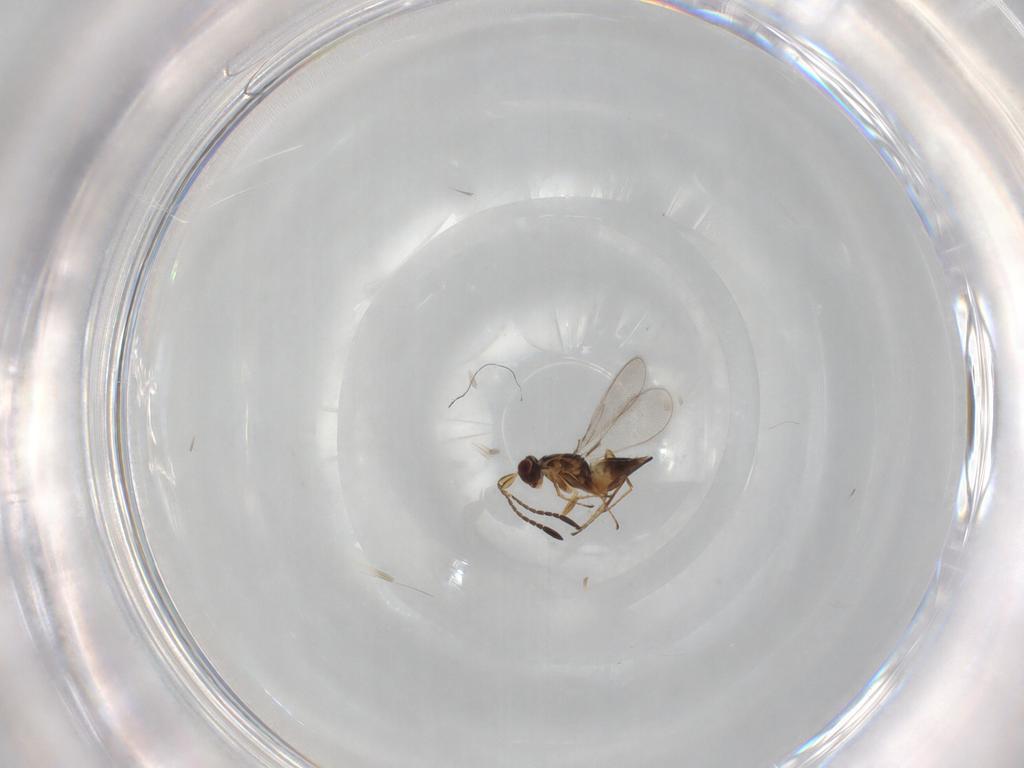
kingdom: Animalia
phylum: Arthropoda
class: Insecta
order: Hymenoptera
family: Mymaridae
